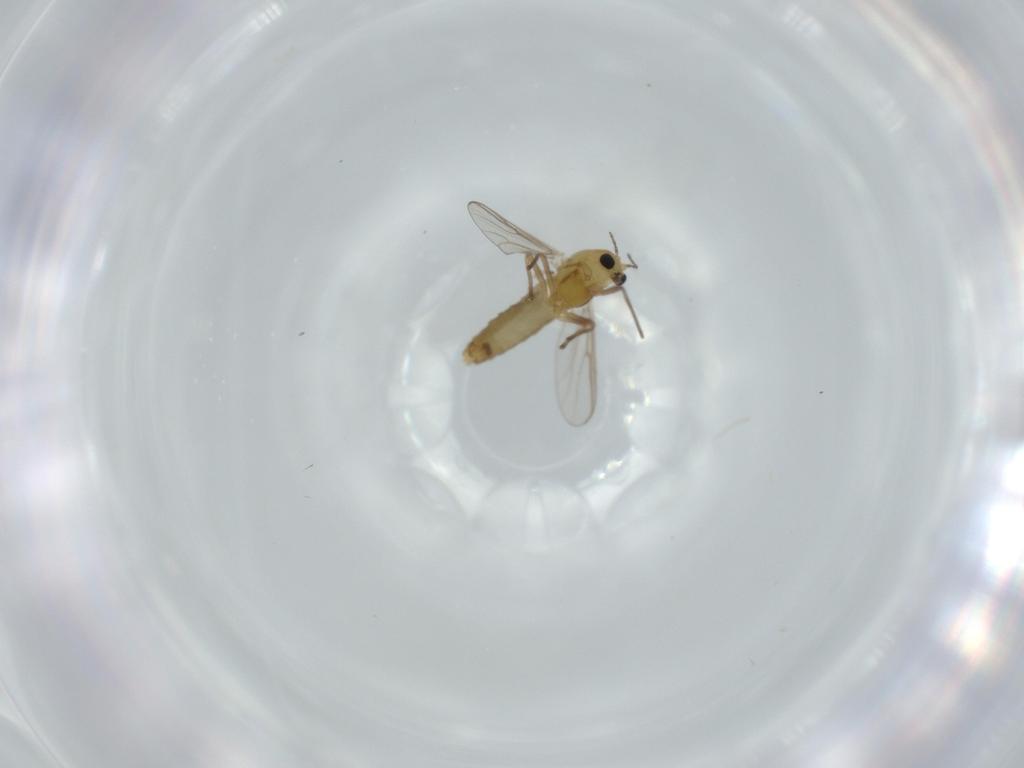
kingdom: Animalia
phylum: Arthropoda
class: Insecta
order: Diptera
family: Chironomidae
